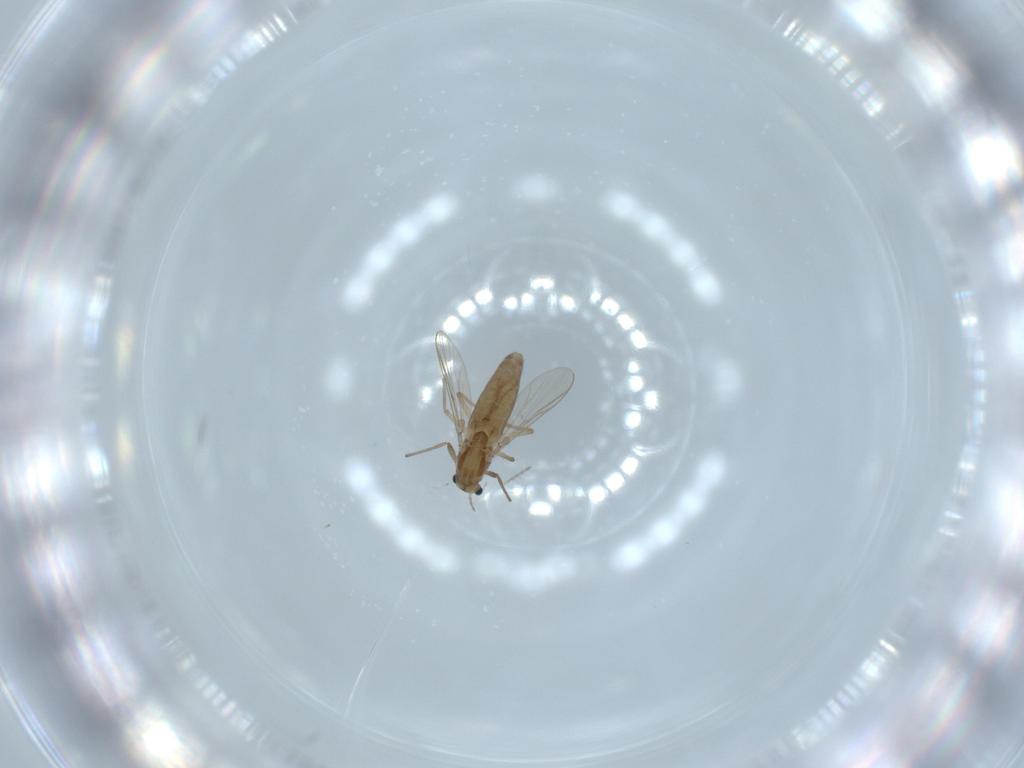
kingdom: Animalia
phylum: Arthropoda
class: Insecta
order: Diptera
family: Chironomidae
